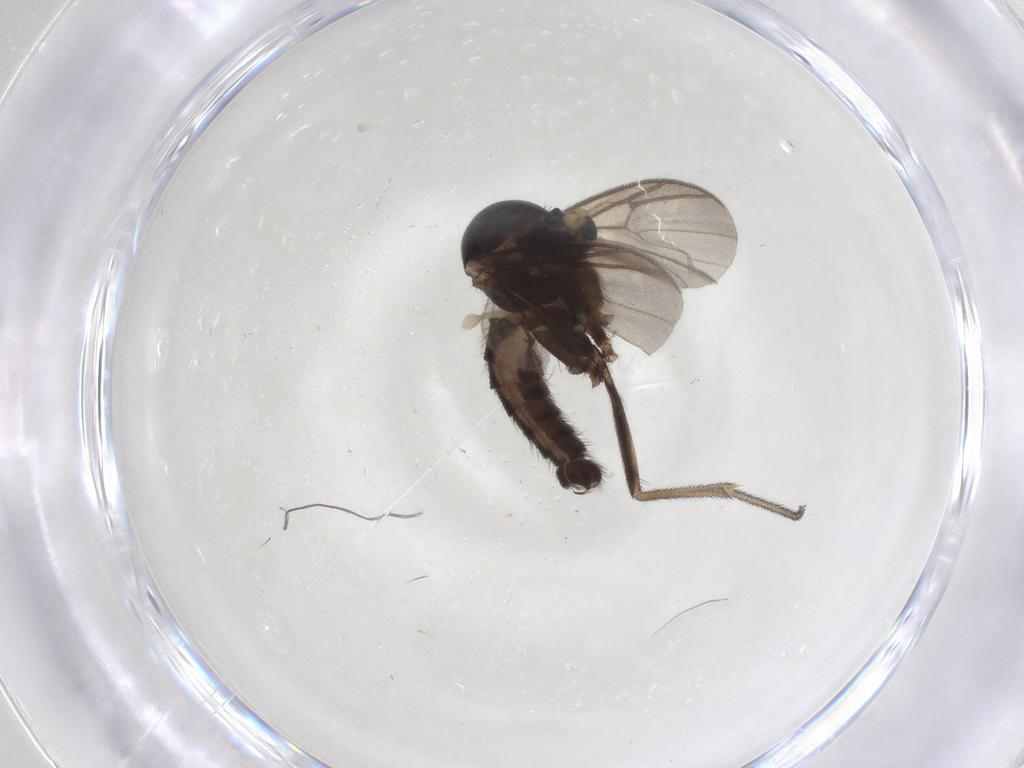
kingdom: Animalia
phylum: Arthropoda
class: Insecta
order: Diptera
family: Mycetophilidae
